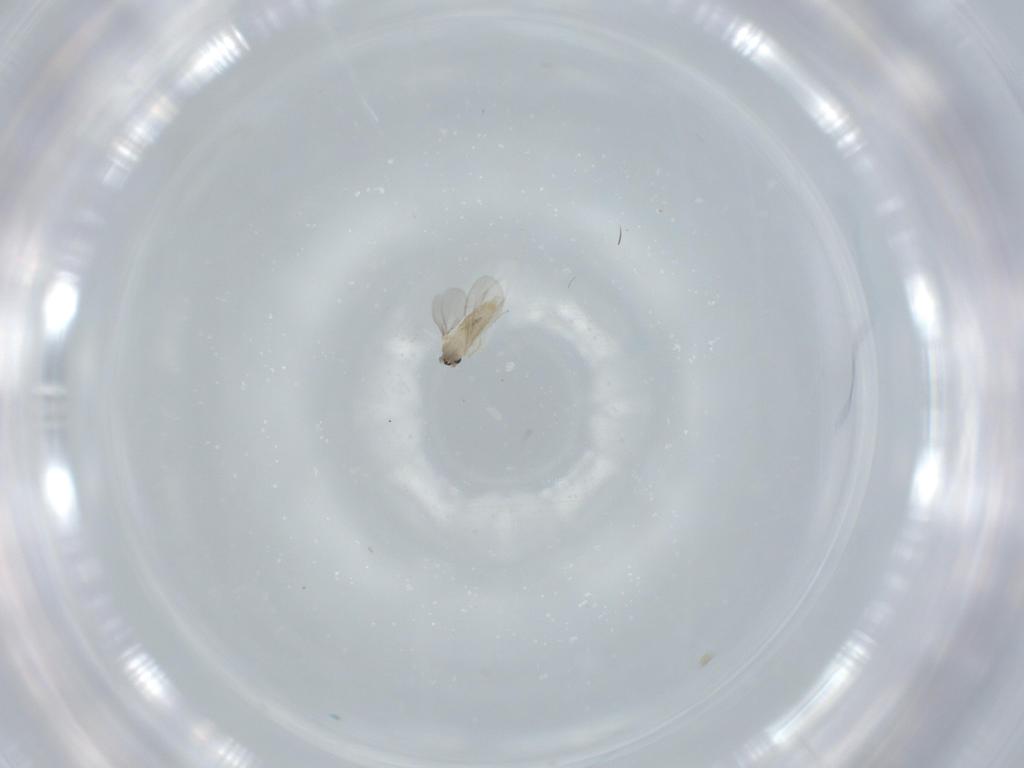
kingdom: Animalia
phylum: Arthropoda
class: Insecta
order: Diptera
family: Cecidomyiidae
